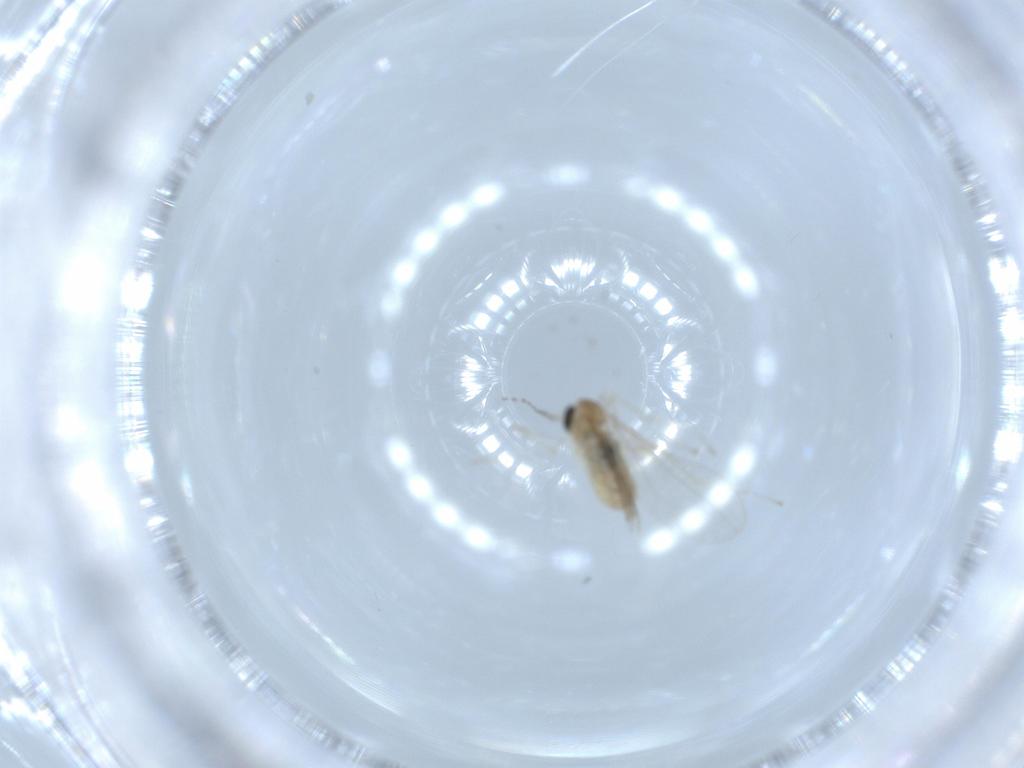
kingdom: Animalia
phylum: Arthropoda
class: Insecta
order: Diptera
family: Cecidomyiidae
